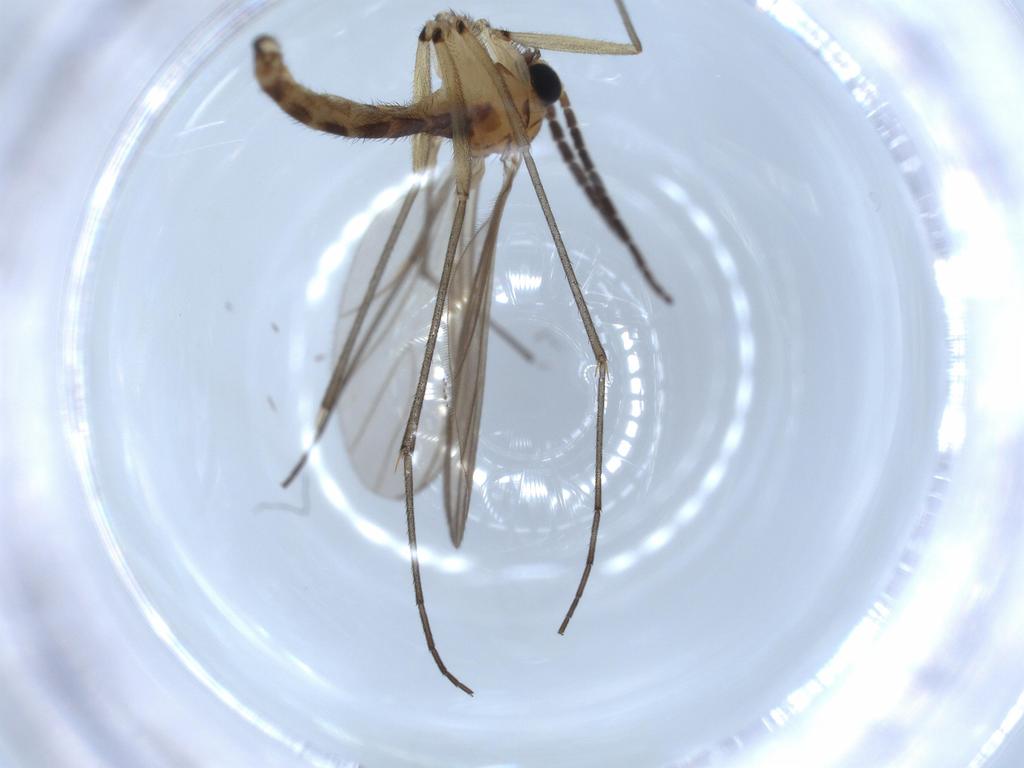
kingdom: Animalia
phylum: Arthropoda
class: Insecta
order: Diptera
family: Sciaridae
